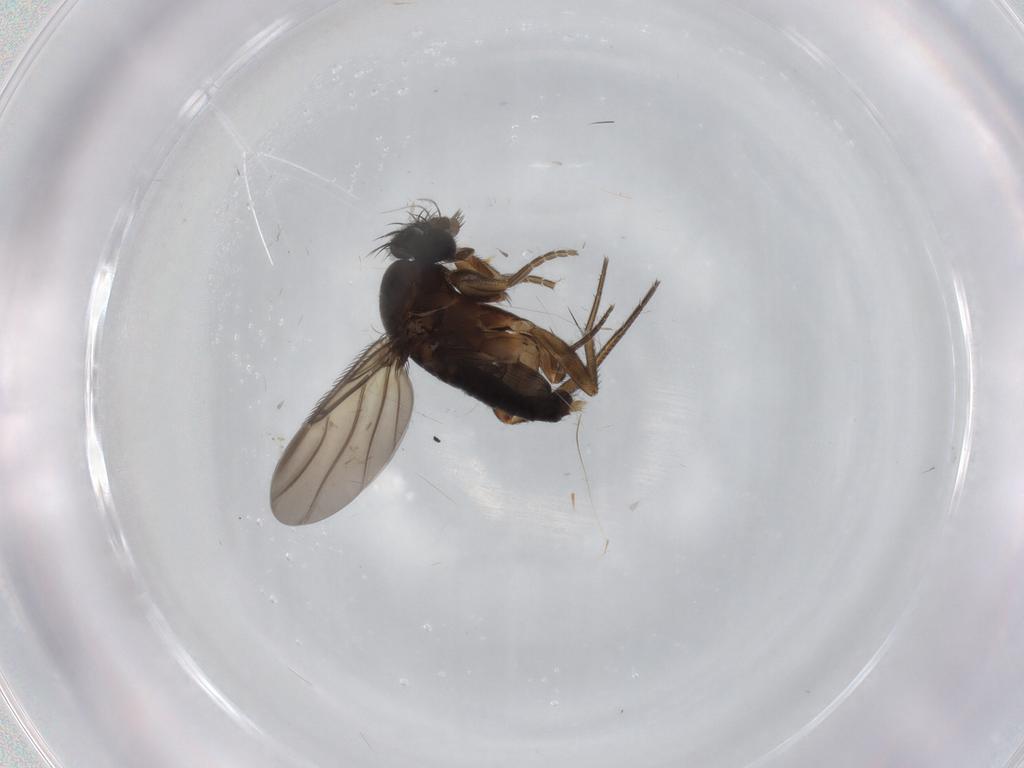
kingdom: Animalia
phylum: Arthropoda
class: Insecta
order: Diptera
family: Phoridae
